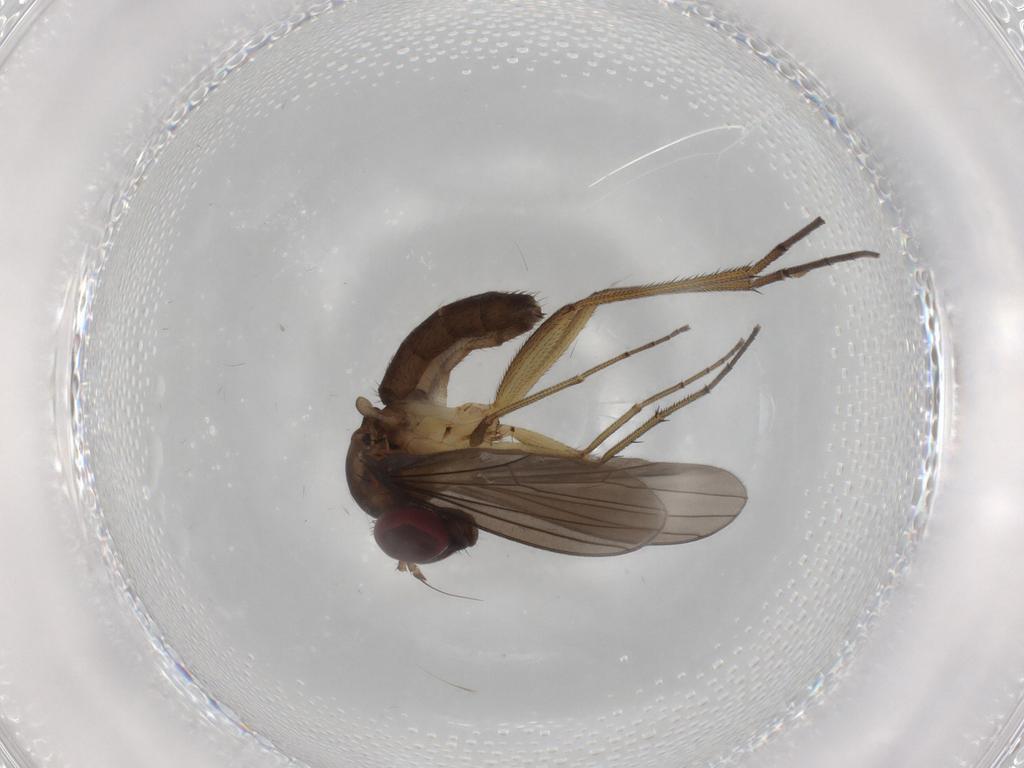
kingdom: Animalia
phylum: Arthropoda
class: Insecta
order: Diptera
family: Dolichopodidae
